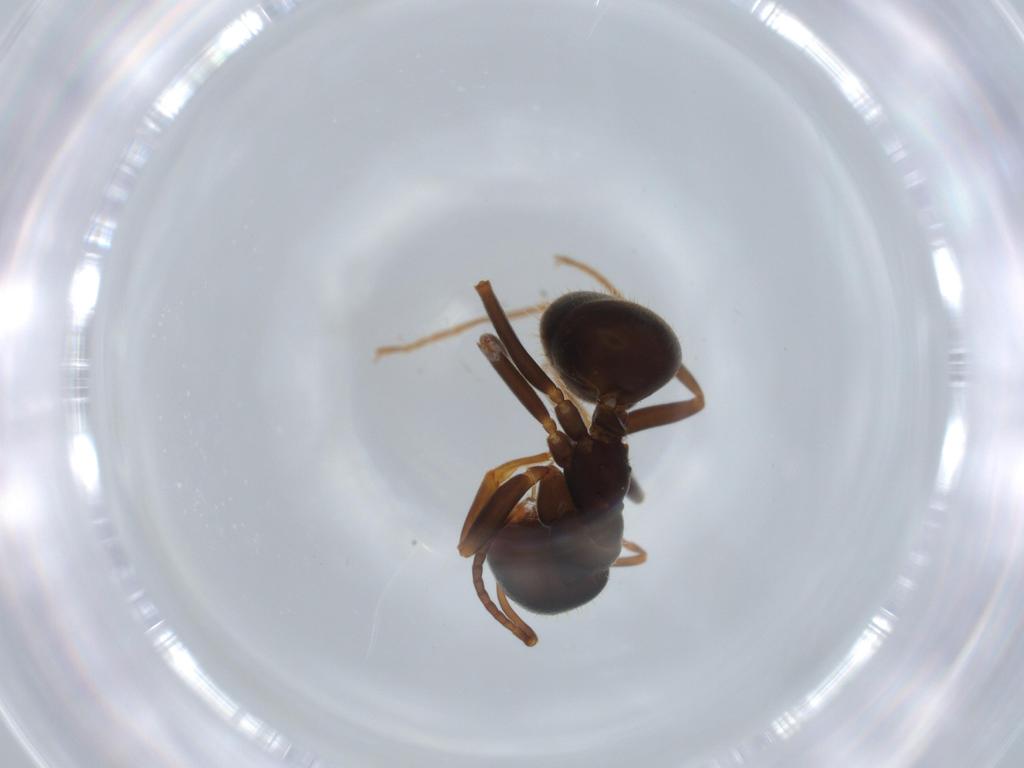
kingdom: Animalia
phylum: Arthropoda
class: Insecta
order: Hymenoptera
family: Formicidae
